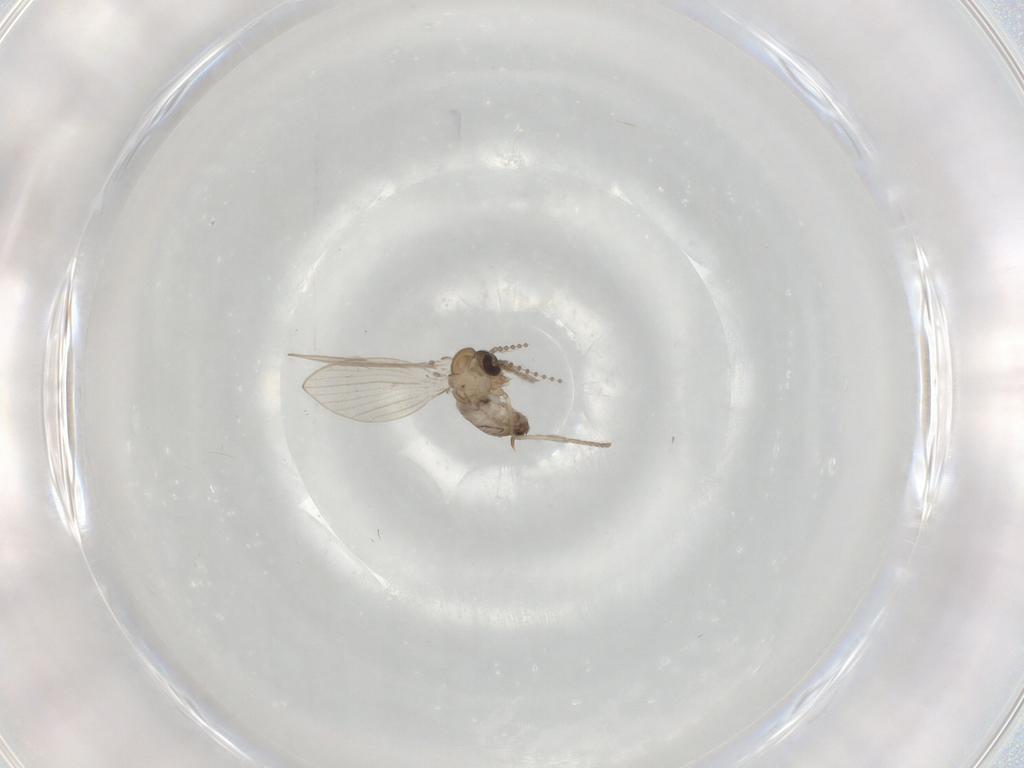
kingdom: Animalia
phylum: Arthropoda
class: Insecta
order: Diptera
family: Psychodidae
